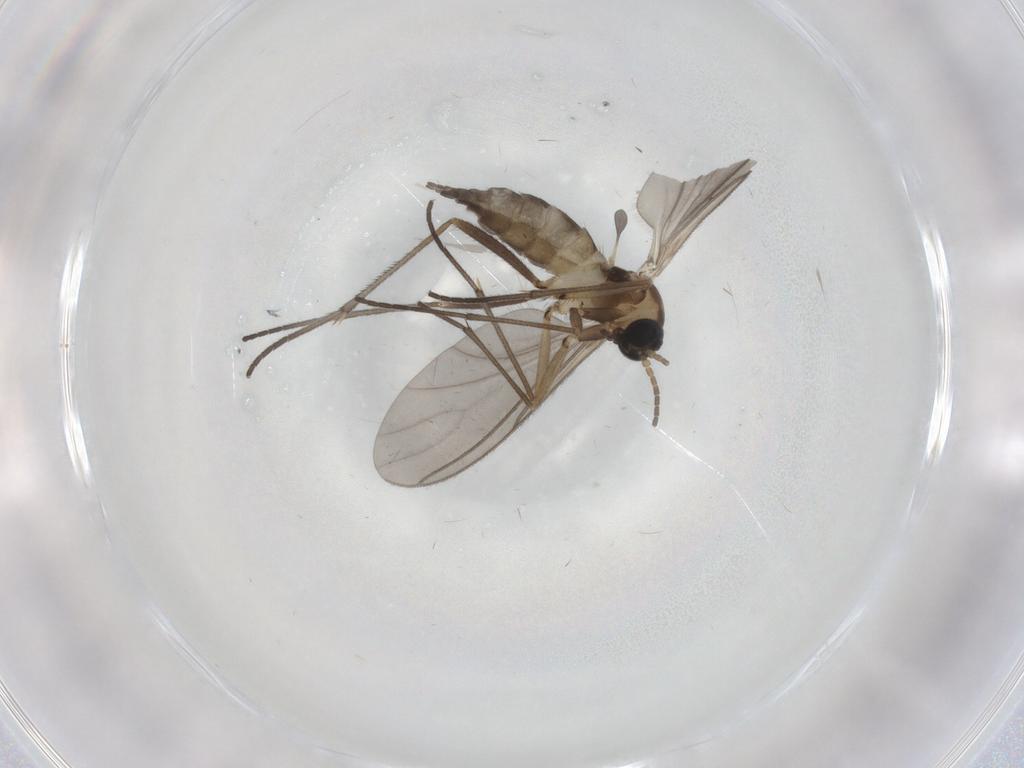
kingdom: Animalia
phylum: Arthropoda
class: Insecta
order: Diptera
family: Sciaridae
